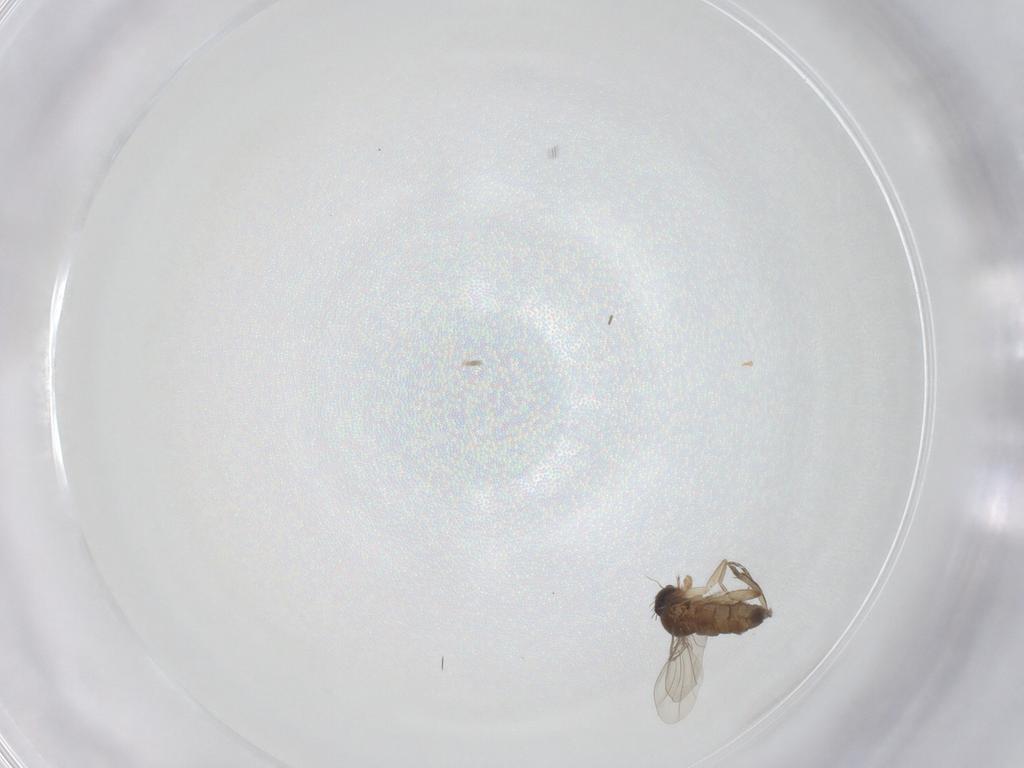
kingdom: Animalia
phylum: Arthropoda
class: Insecta
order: Diptera
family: Phoridae
